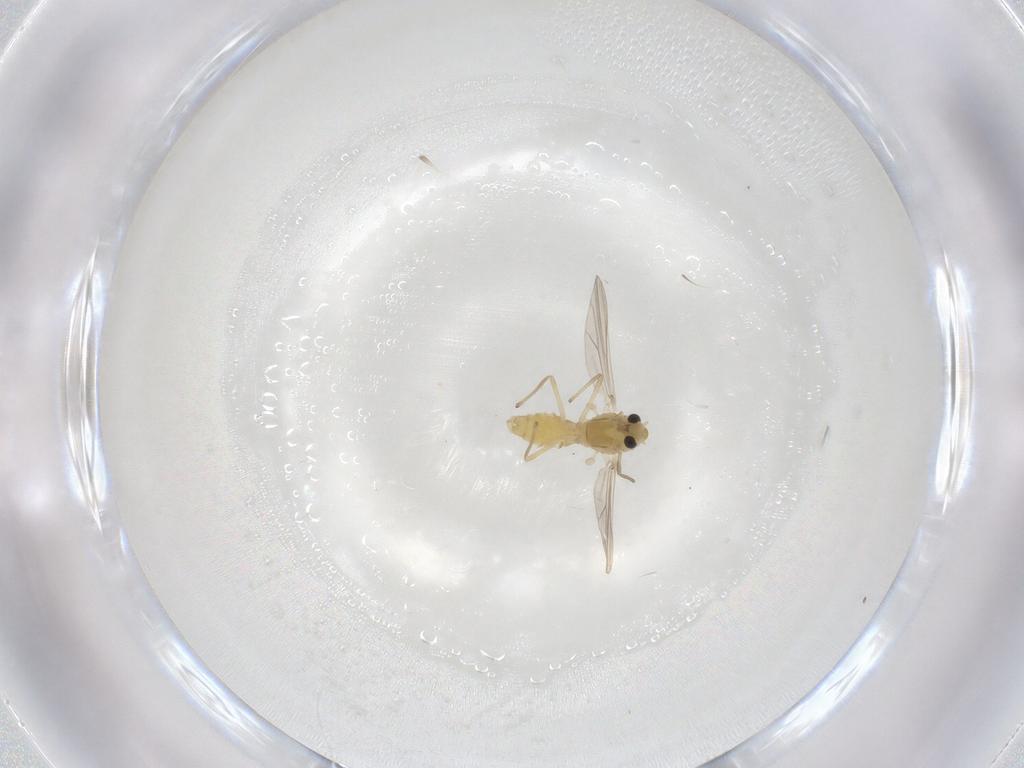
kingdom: Animalia
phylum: Arthropoda
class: Insecta
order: Diptera
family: Chironomidae
